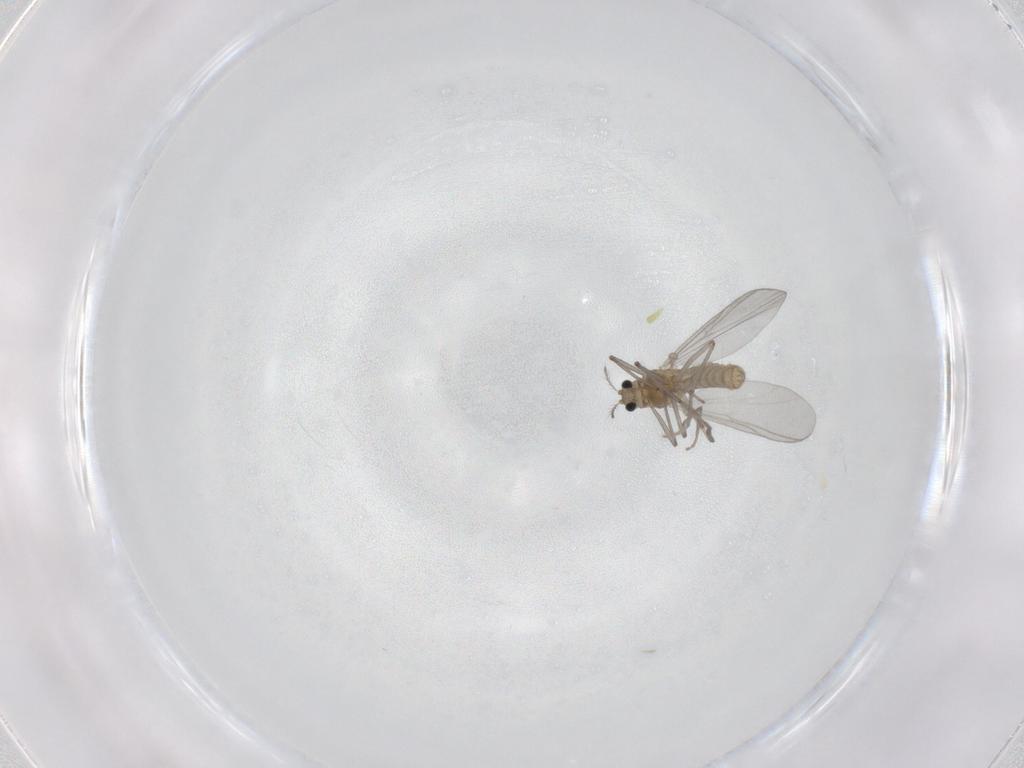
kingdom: Animalia
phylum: Arthropoda
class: Insecta
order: Diptera
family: Chironomidae
